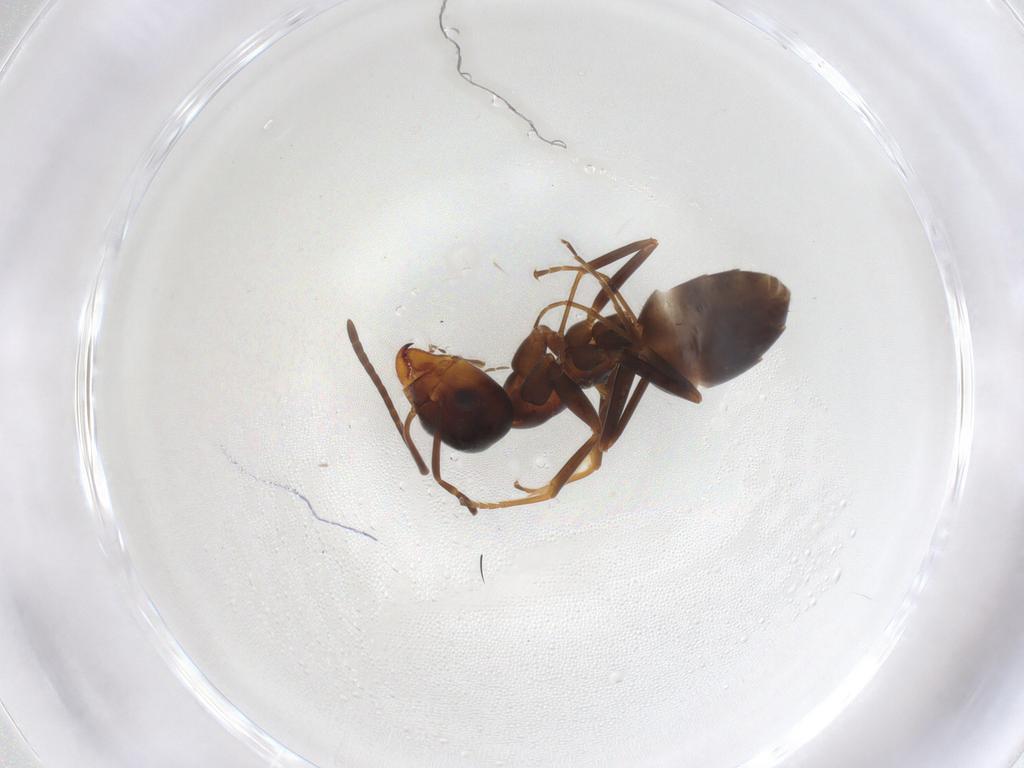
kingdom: Animalia
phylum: Arthropoda
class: Insecta
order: Hymenoptera
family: Formicidae
